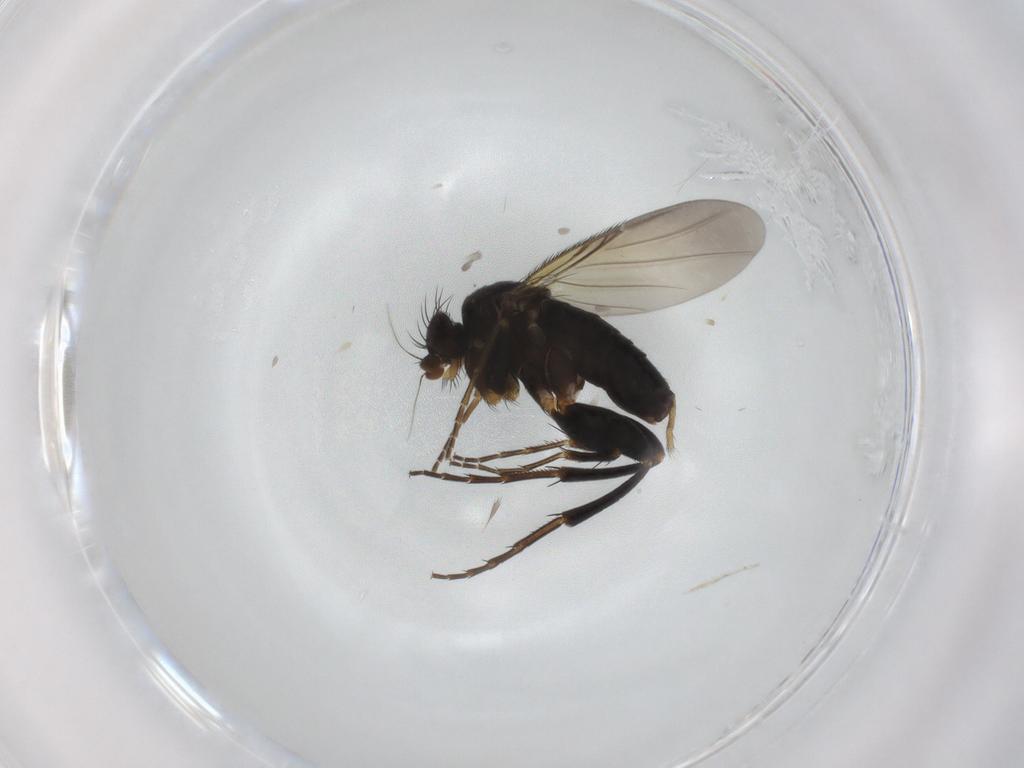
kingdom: Animalia
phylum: Arthropoda
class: Insecta
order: Diptera
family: Phoridae
